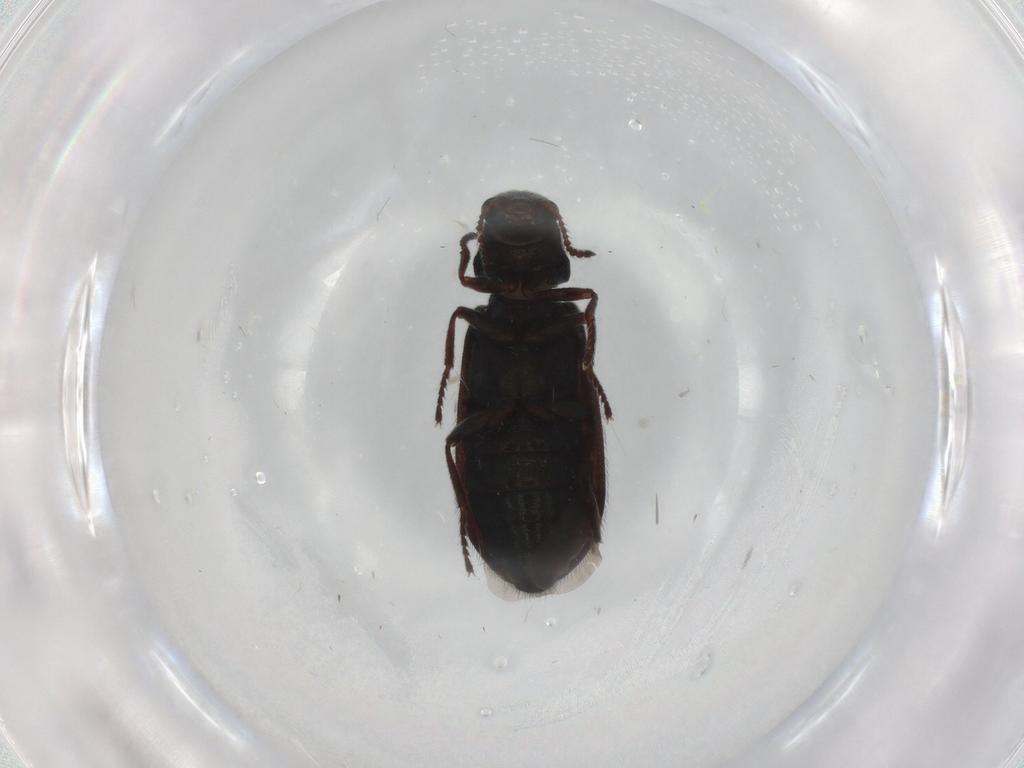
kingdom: Animalia
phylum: Arthropoda
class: Insecta
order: Coleoptera
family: Melyridae
